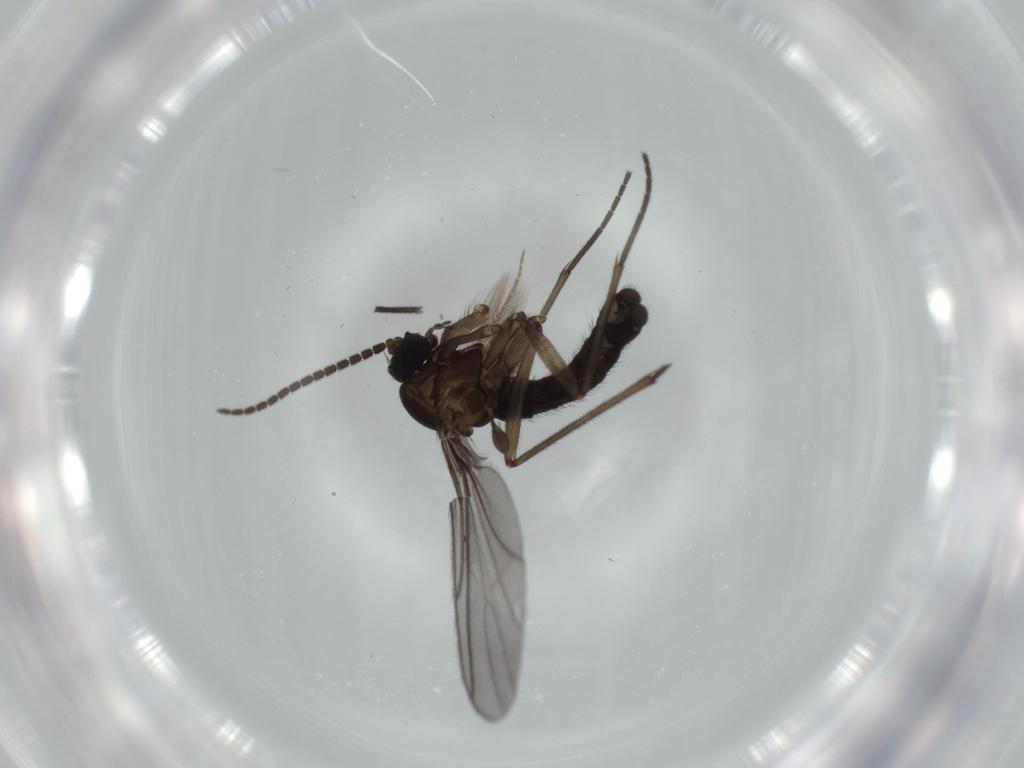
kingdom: Animalia
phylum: Arthropoda
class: Insecta
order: Diptera
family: Sciaridae
